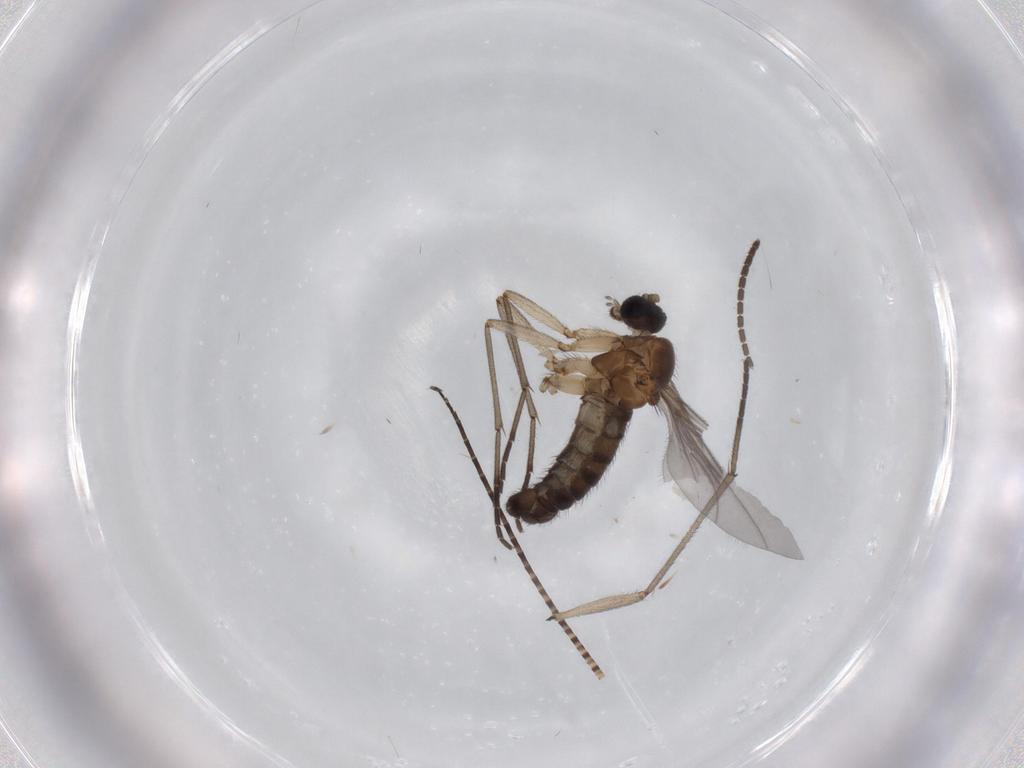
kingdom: Animalia
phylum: Arthropoda
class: Insecta
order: Diptera
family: Sciaridae
